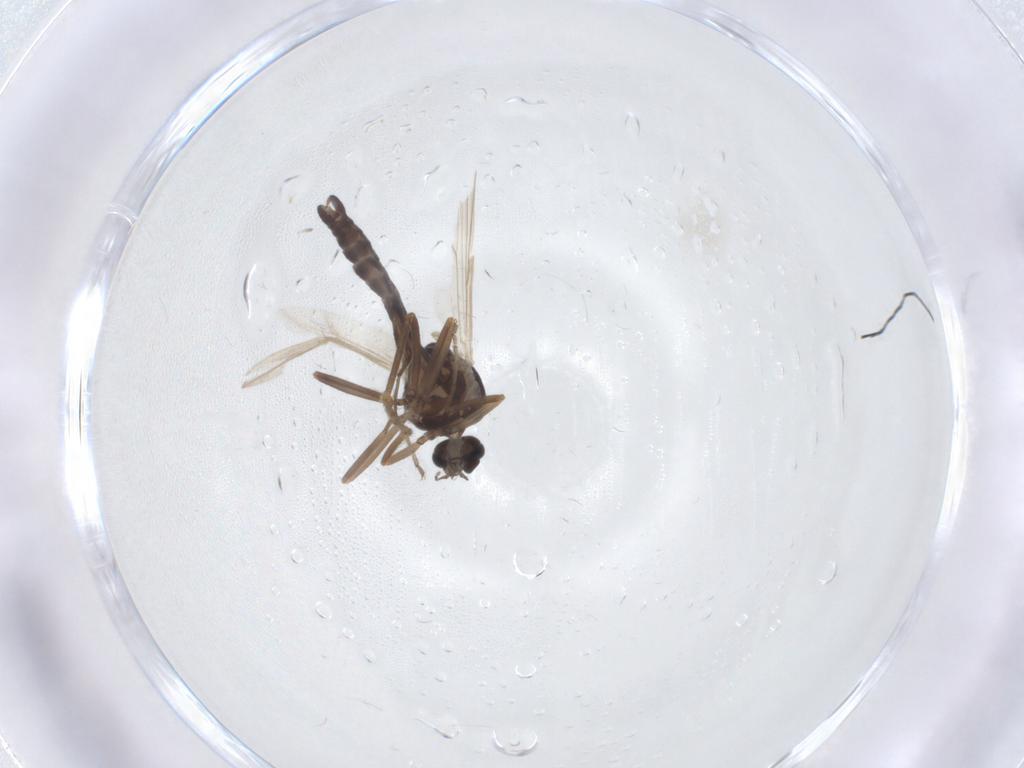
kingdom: Animalia
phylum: Arthropoda
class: Insecta
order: Diptera
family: Ceratopogonidae
